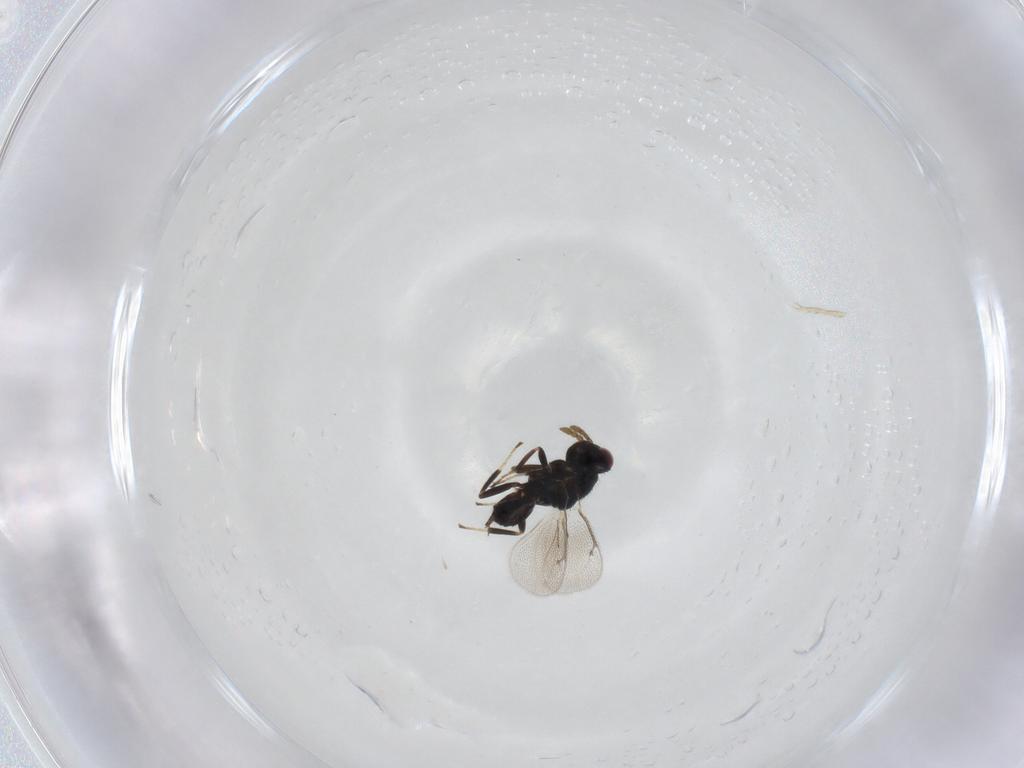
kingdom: Animalia
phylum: Arthropoda
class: Insecta
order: Hymenoptera
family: Eulophidae
